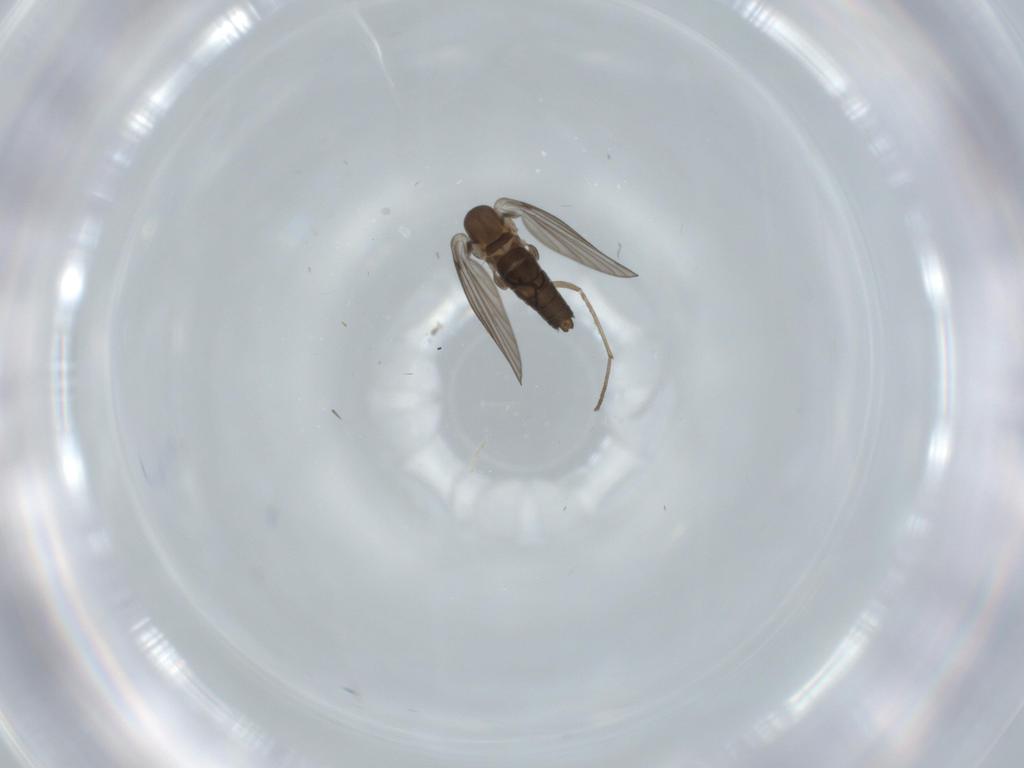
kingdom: Animalia
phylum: Arthropoda
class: Insecta
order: Diptera
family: Psychodidae
